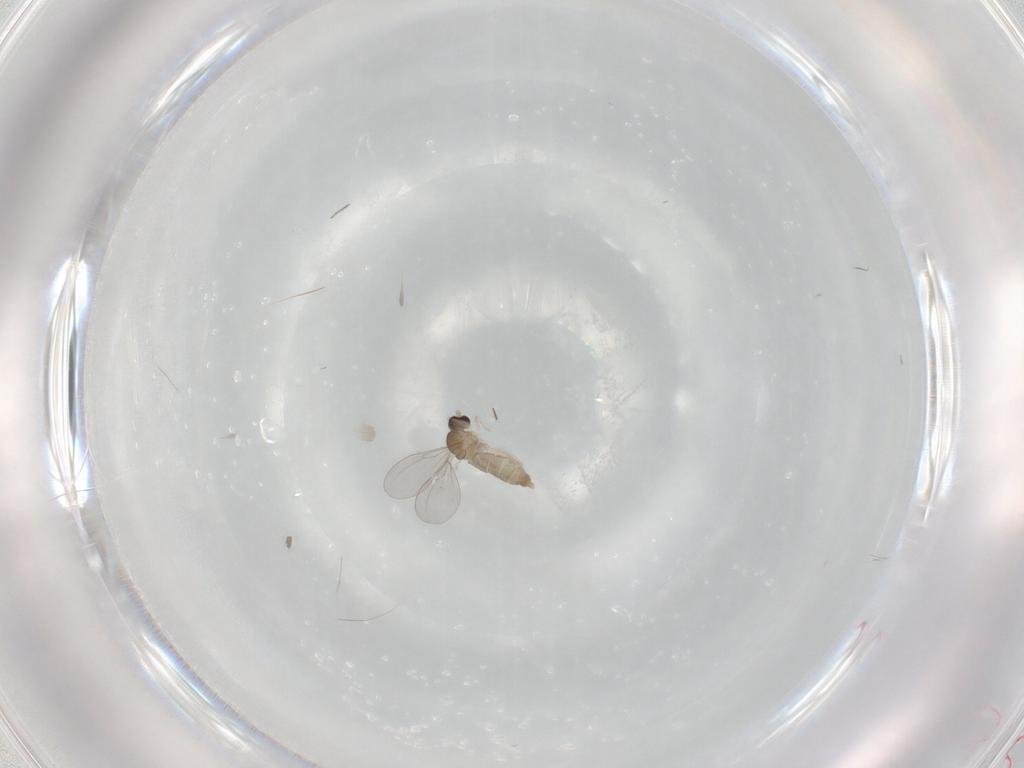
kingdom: Animalia
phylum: Arthropoda
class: Insecta
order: Diptera
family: Chironomidae
